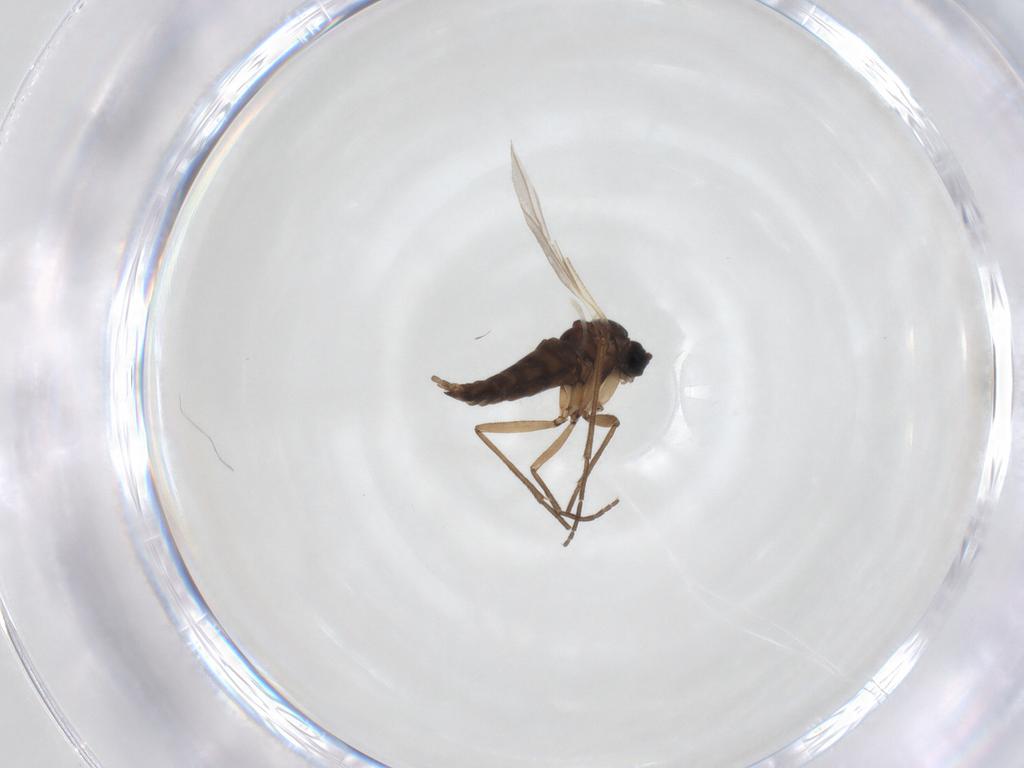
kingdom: Animalia
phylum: Arthropoda
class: Insecta
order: Diptera
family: Sciaridae
